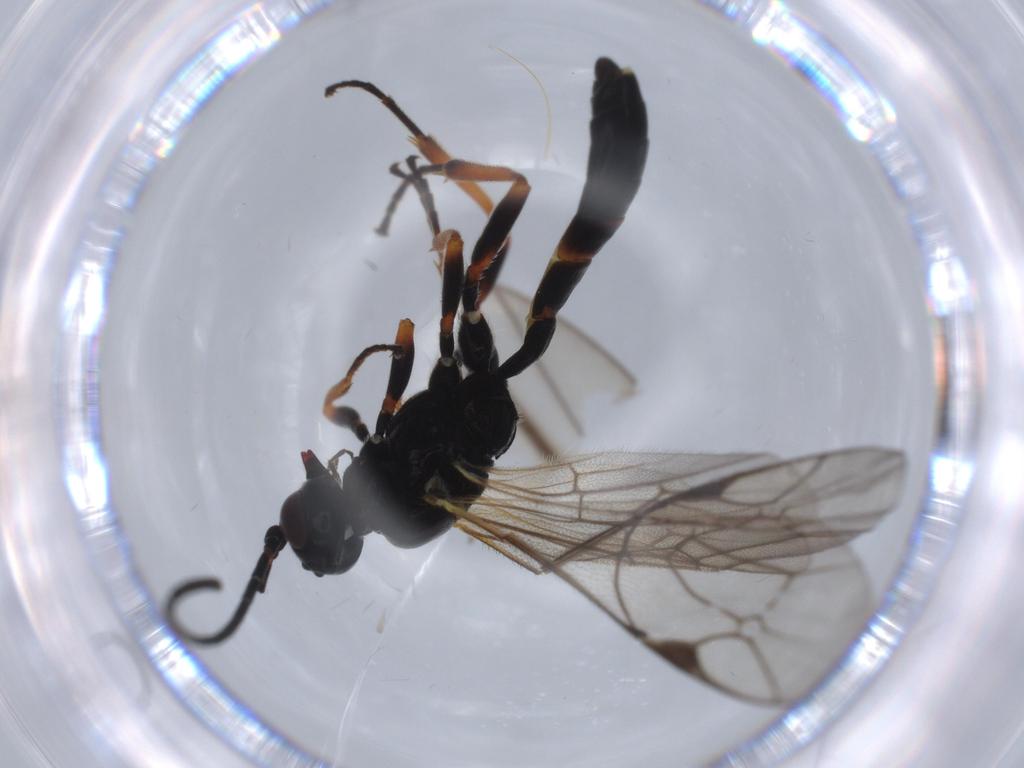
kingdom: Animalia
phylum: Arthropoda
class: Insecta
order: Hymenoptera
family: Ichneumonidae
